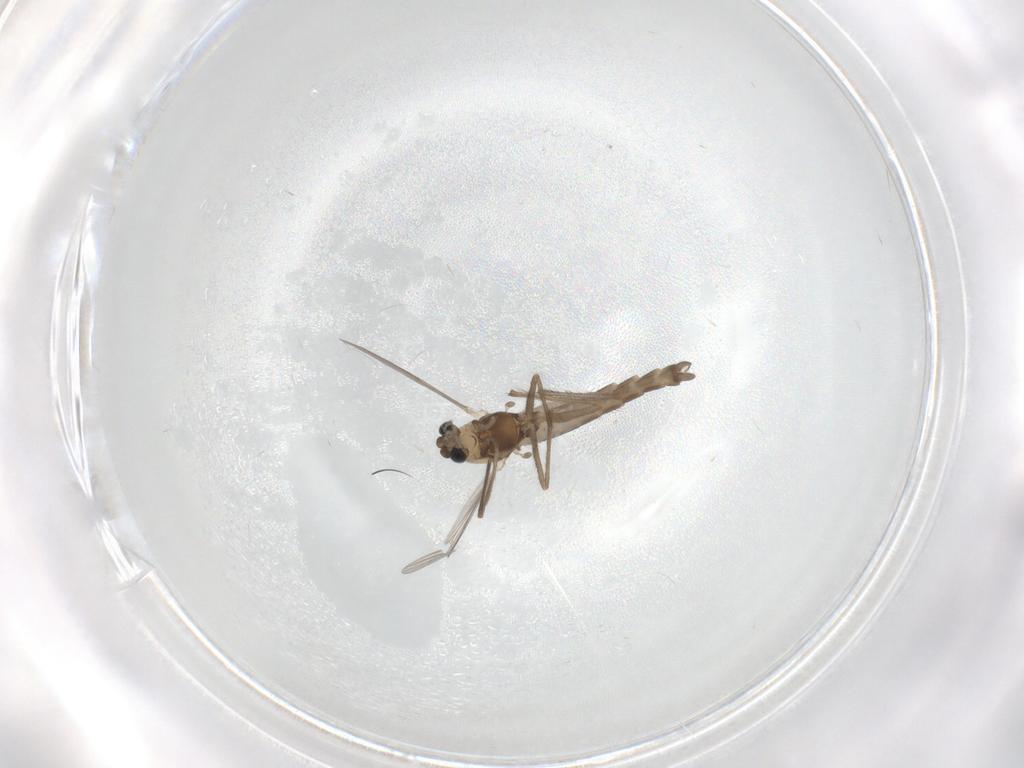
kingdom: Animalia
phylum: Arthropoda
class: Insecta
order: Diptera
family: Chironomidae
